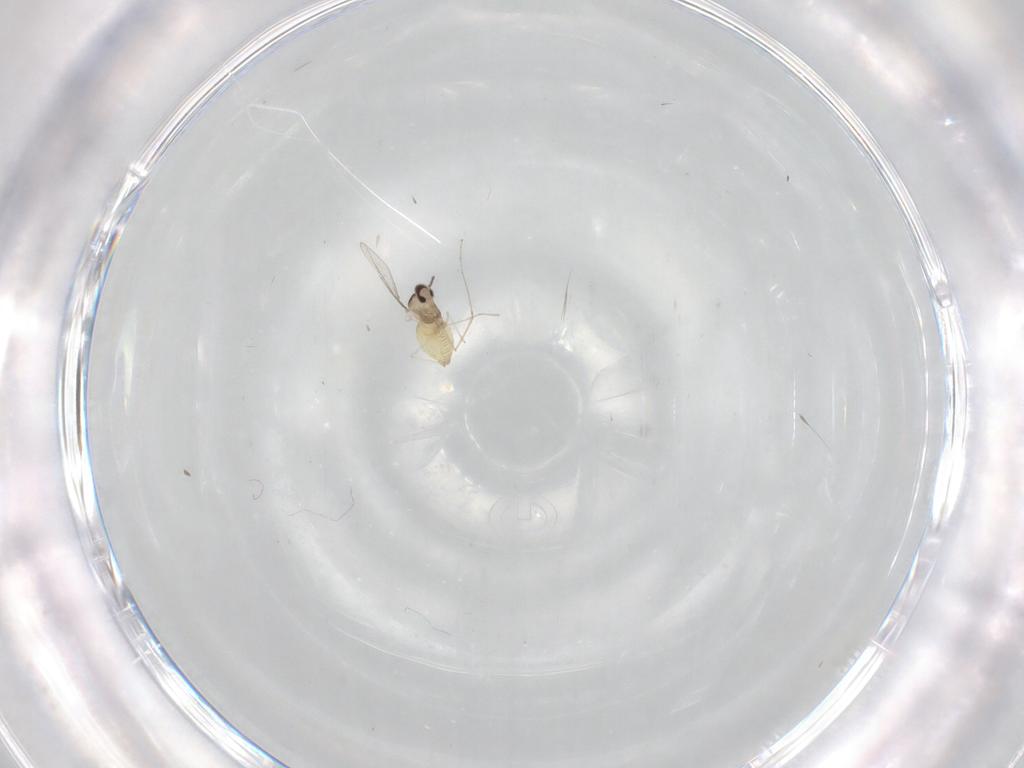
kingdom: Animalia
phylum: Arthropoda
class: Insecta
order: Diptera
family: Cecidomyiidae
